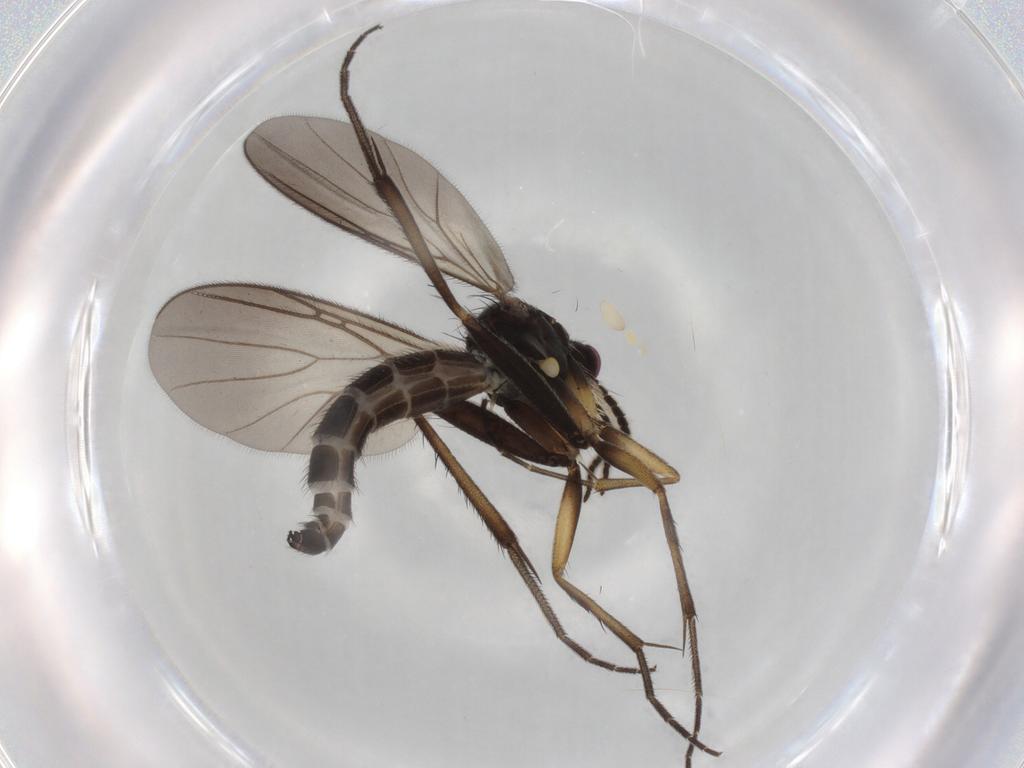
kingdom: Animalia
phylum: Arthropoda
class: Insecta
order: Diptera
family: Mycetophilidae
